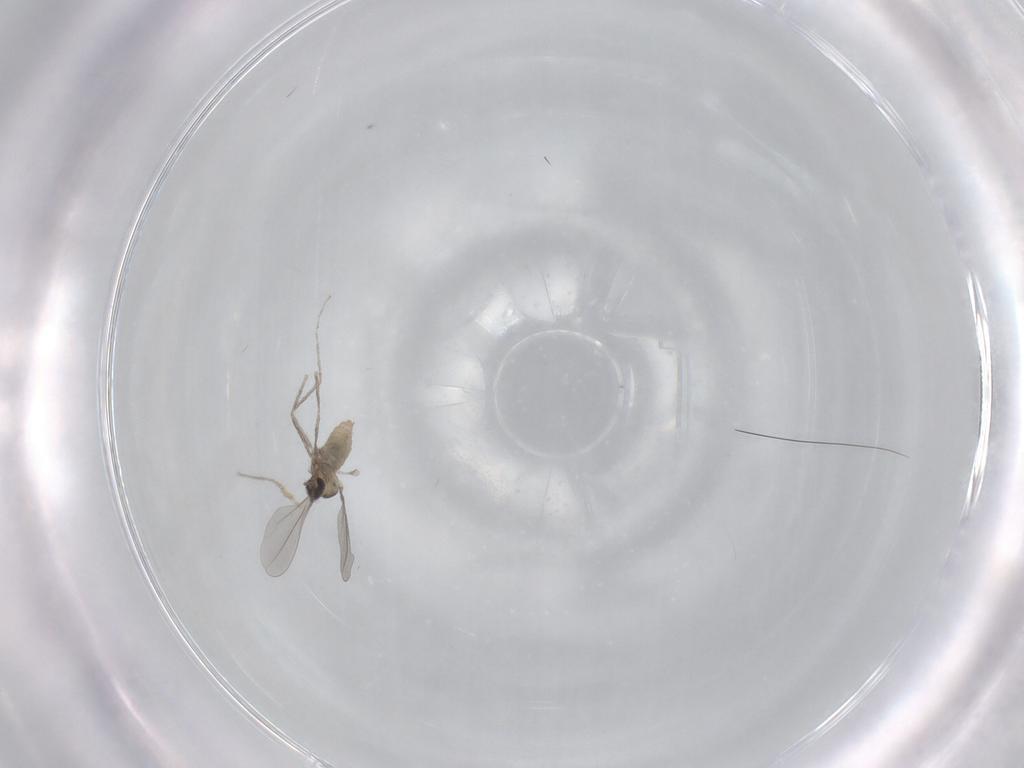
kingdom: Animalia
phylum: Arthropoda
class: Insecta
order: Diptera
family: Cecidomyiidae
